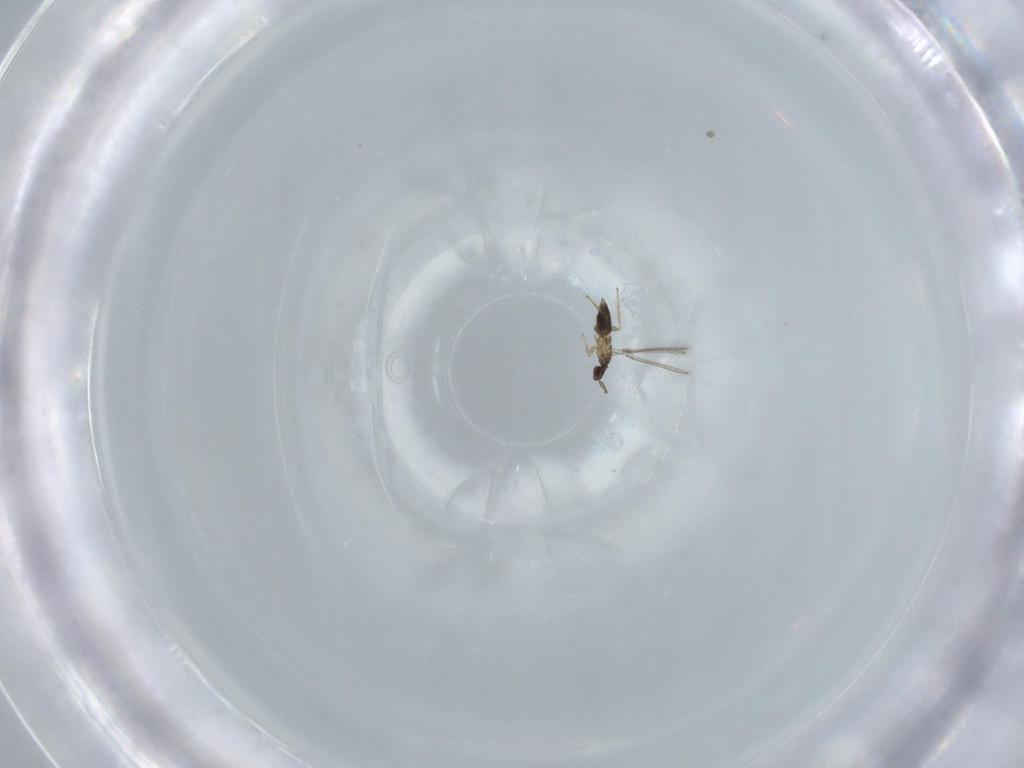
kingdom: Animalia
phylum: Arthropoda
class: Insecta
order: Hymenoptera
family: Mymaridae
